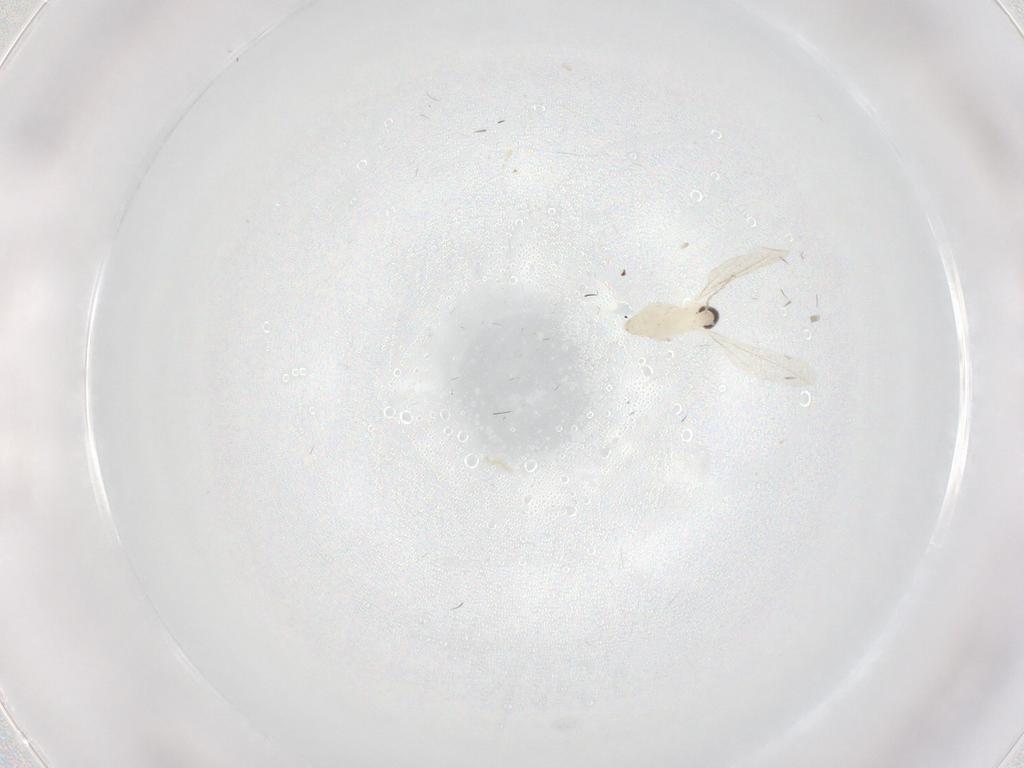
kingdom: Animalia
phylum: Arthropoda
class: Insecta
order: Diptera
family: Cecidomyiidae
